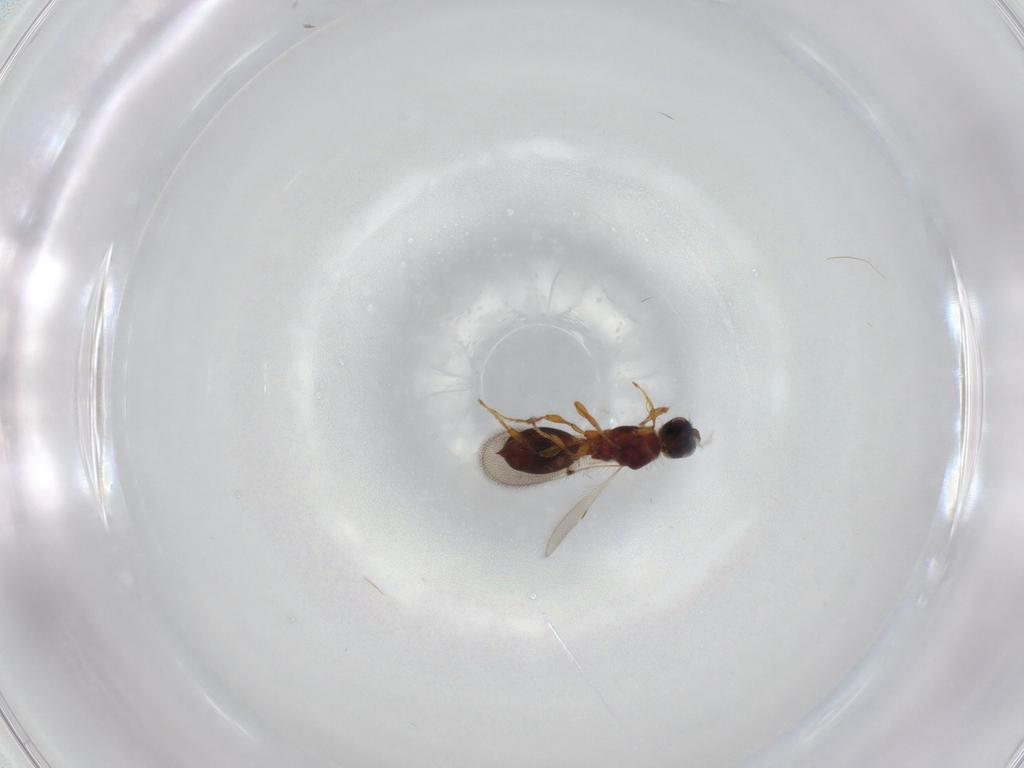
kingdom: Animalia
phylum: Arthropoda
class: Insecta
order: Hymenoptera
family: Diapriidae
